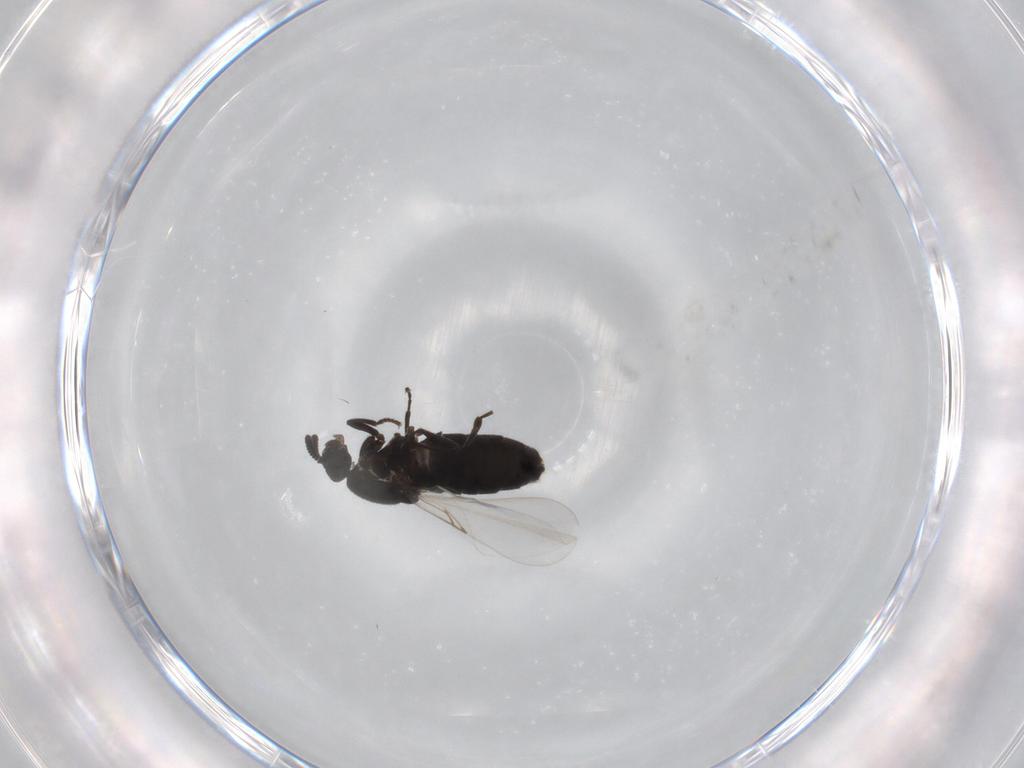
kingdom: Animalia
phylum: Arthropoda
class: Insecta
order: Diptera
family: Scatopsidae
